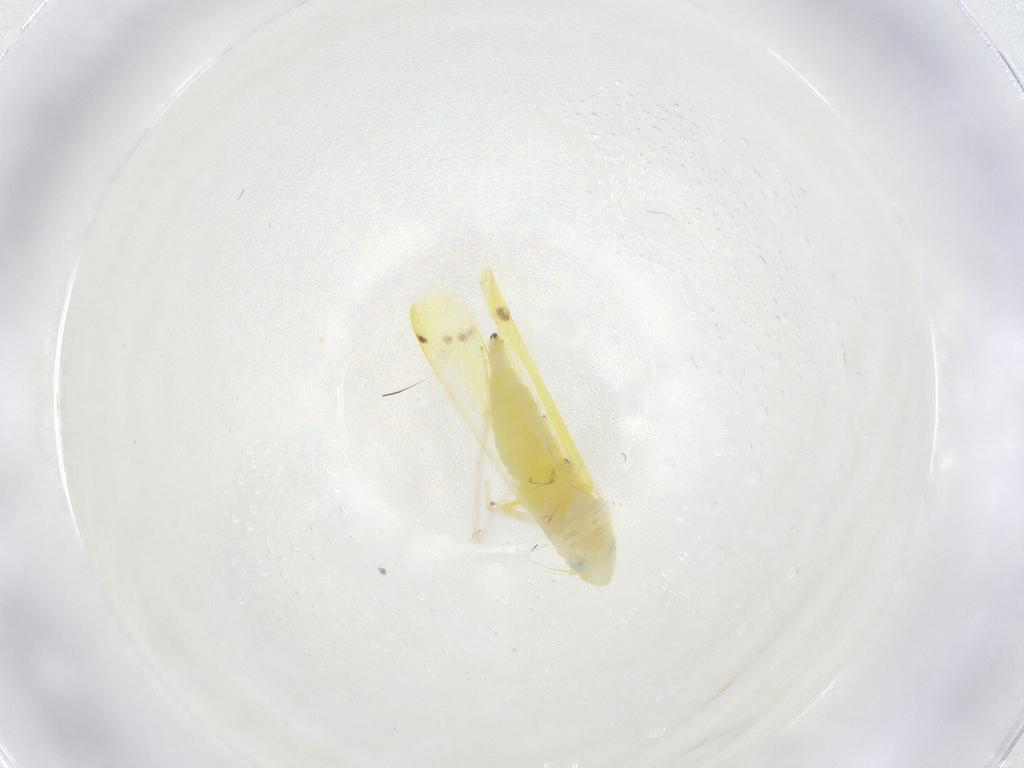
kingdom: Animalia
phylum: Arthropoda
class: Insecta
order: Hemiptera
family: Cicadellidae
